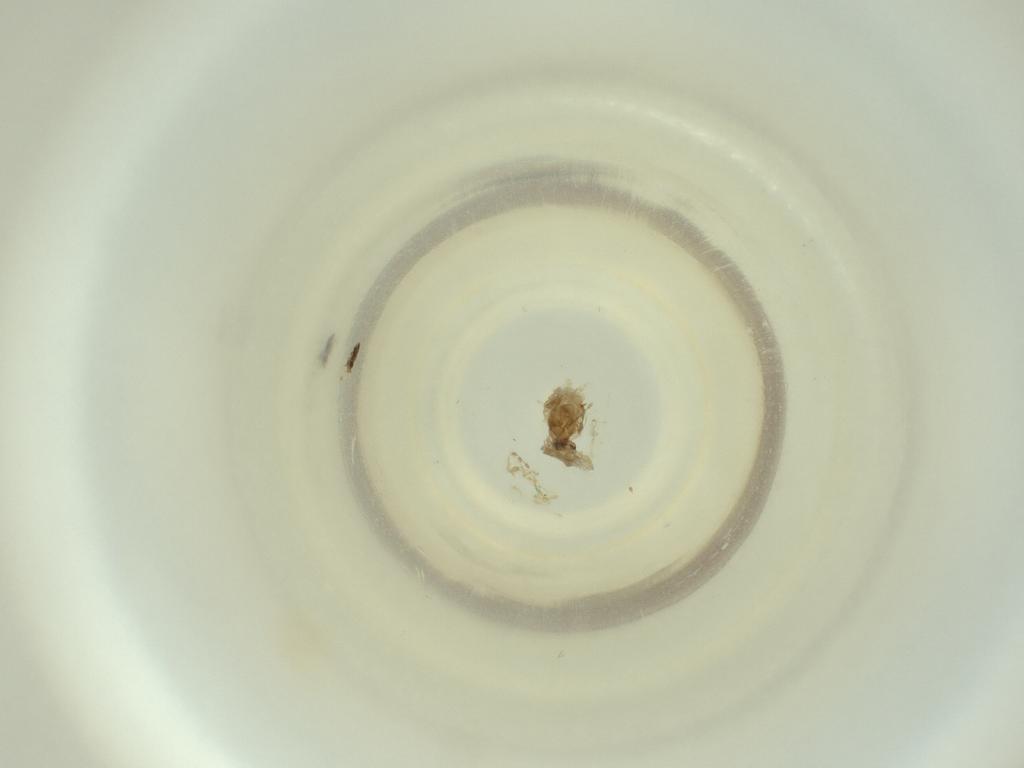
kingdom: Animalia
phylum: Arthropoda
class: Insecta
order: Diptera
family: Cecidomyiidae
